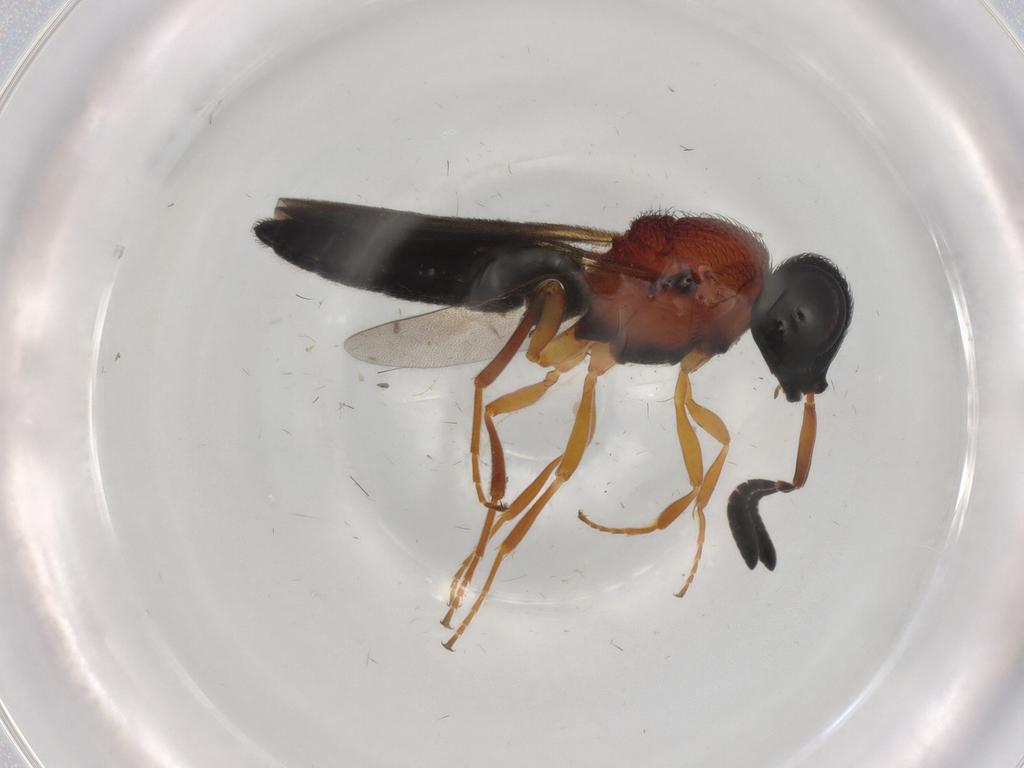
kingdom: Animalia
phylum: Arthropoda
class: Insecta
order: Hymenoptera
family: Scelionidae
